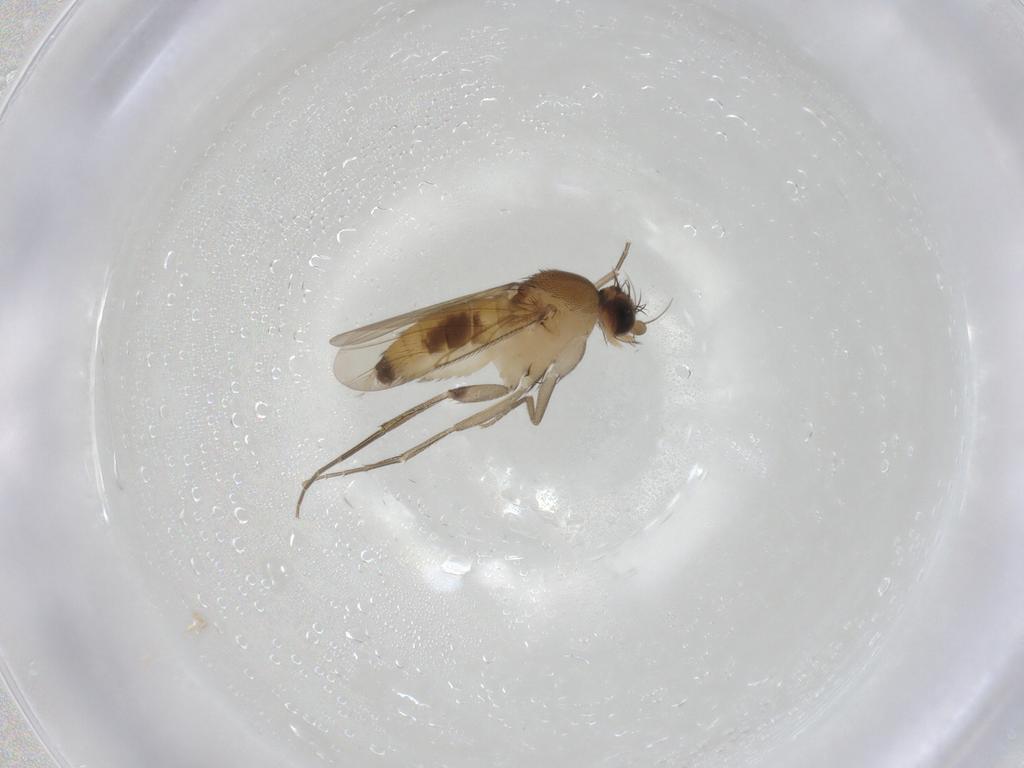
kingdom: Animalia
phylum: Arthropoda
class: Insecta
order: Diptera
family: Phoridae
